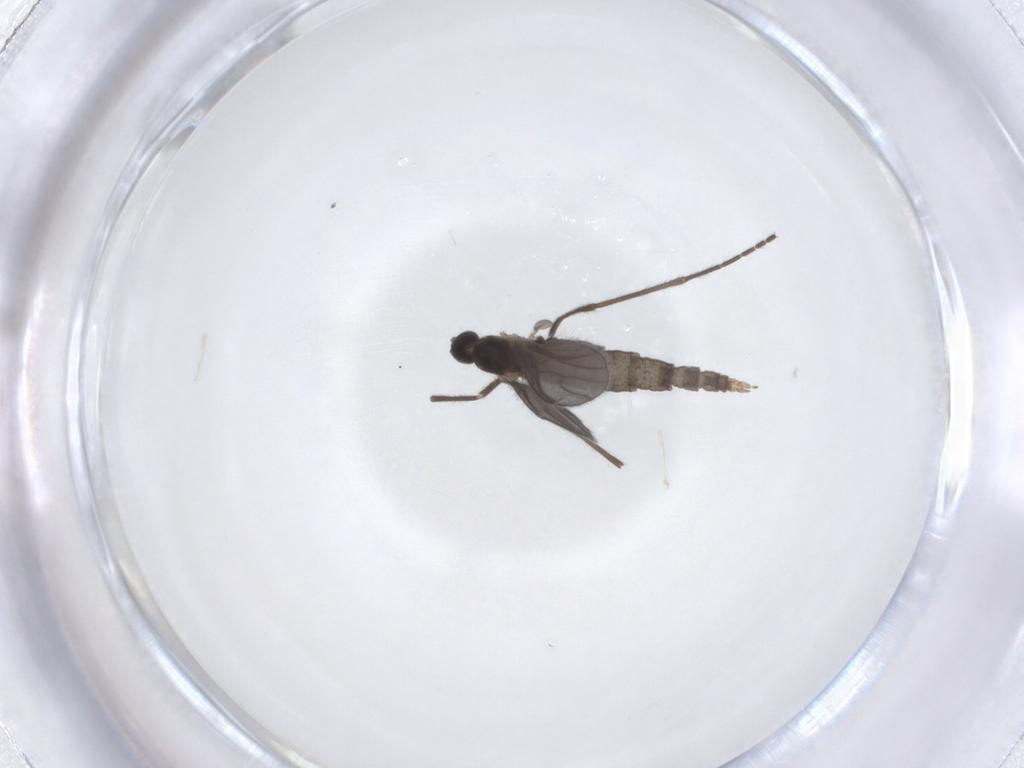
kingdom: Animalia
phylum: Arthropoda
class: Insecta
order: Diptera
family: Cecidomyiidae
